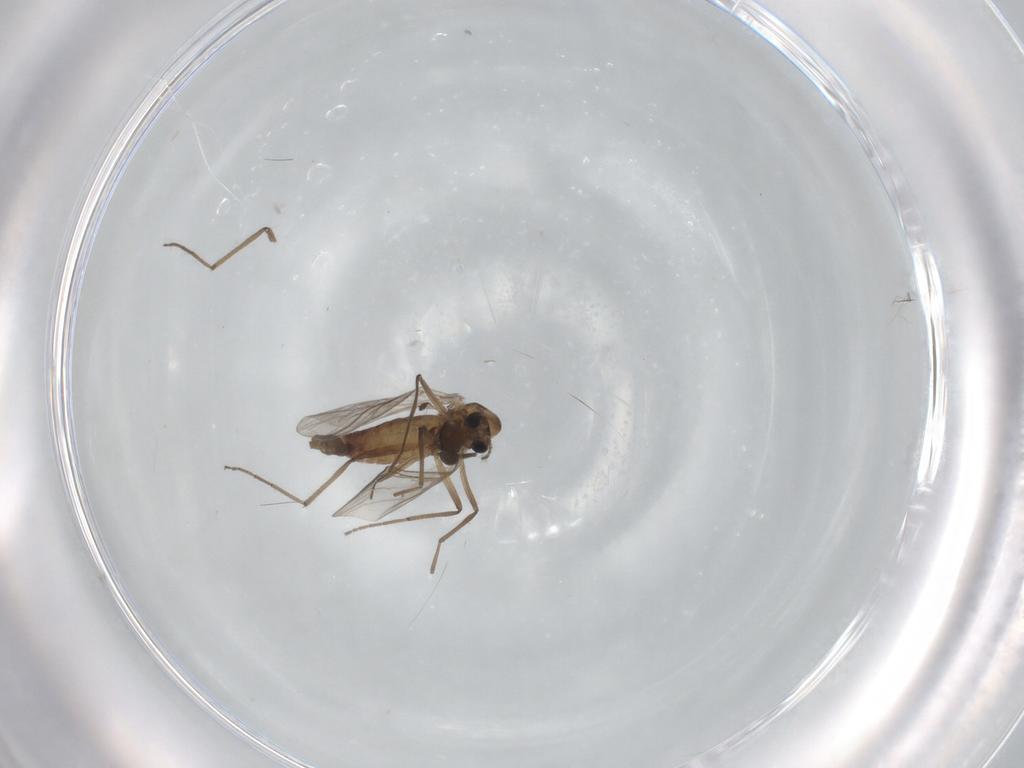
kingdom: Animalia
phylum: Arthropoda
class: Insecta
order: Diptera
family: Chironomidae
